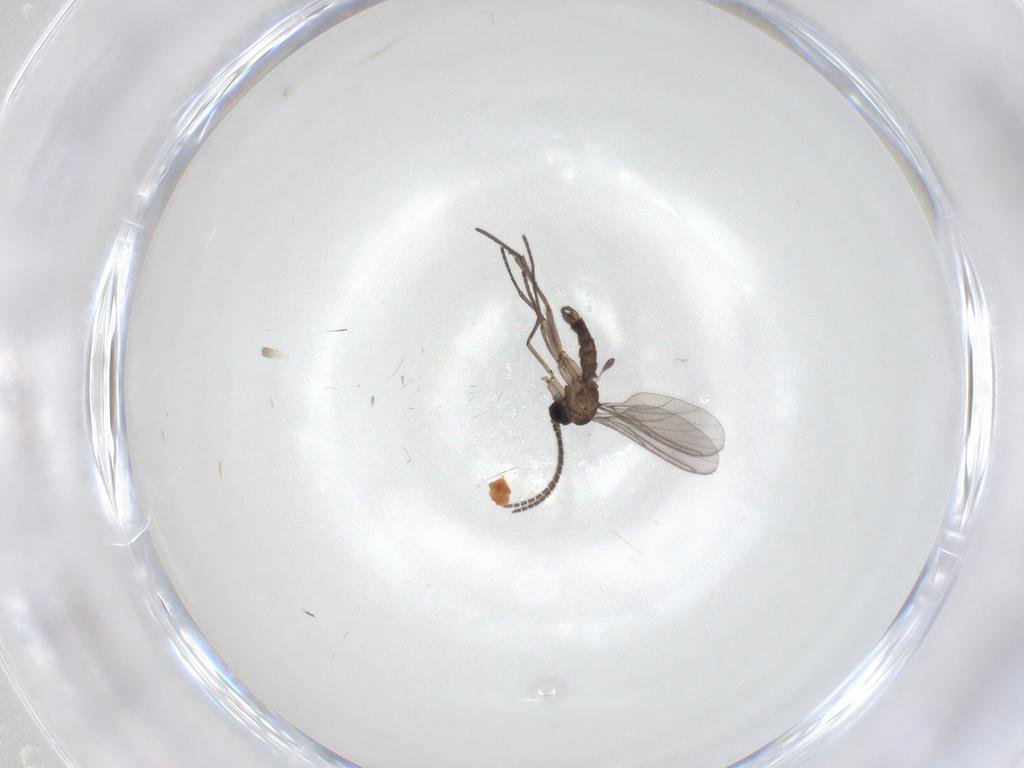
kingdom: Animalia
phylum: Arthropoda
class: Insecta
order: Diptera
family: Sciaridae
